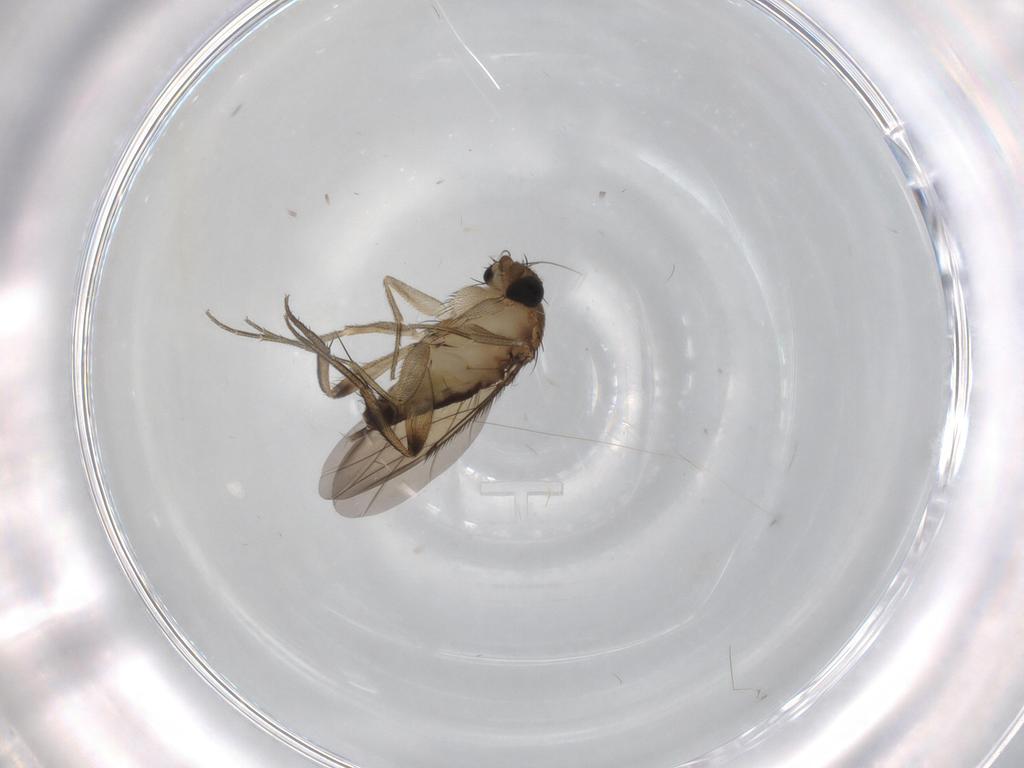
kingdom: Animalia
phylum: Arthropoda
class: Insecta
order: Diptera
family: Phoridae
